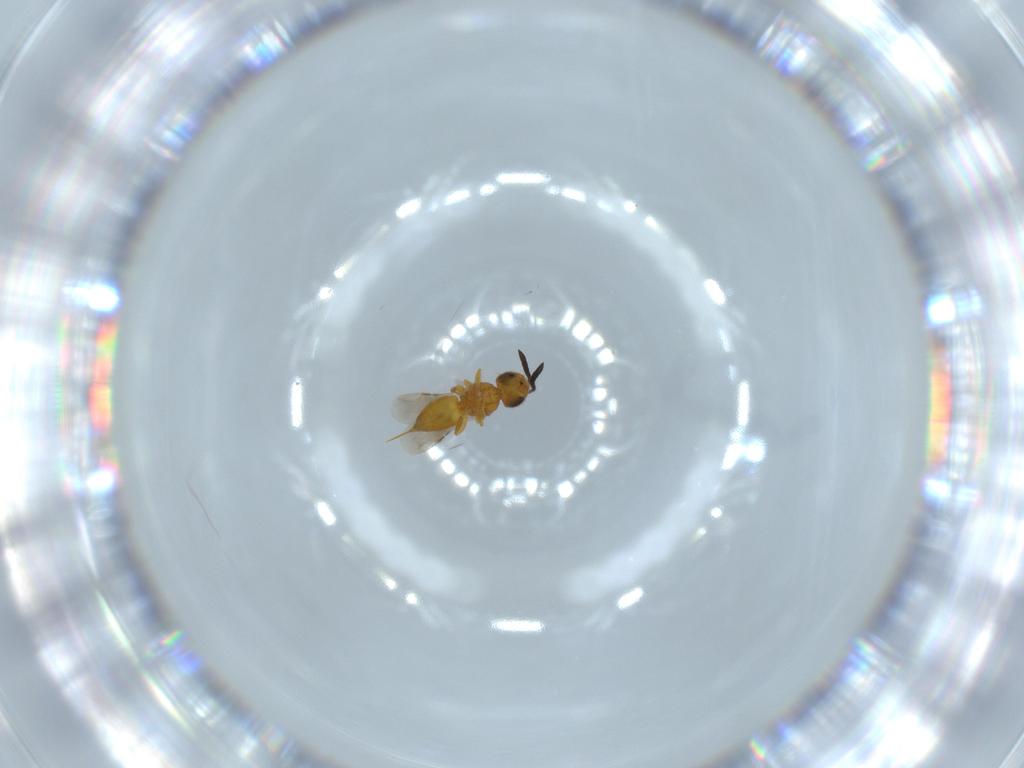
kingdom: Animalia
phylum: Arthropoda
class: Insecta
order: Hymenoptera
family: Ceraphronidae
